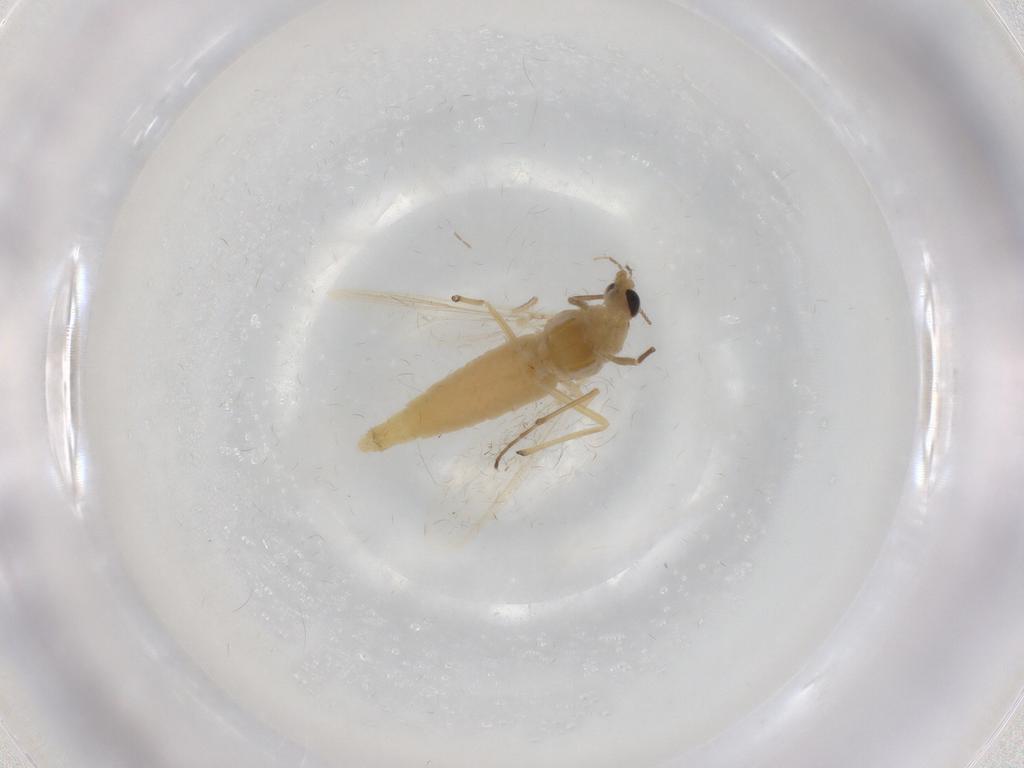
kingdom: Animalia
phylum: Arthropoda
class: Insecta
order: Diptera
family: Chironomidae
